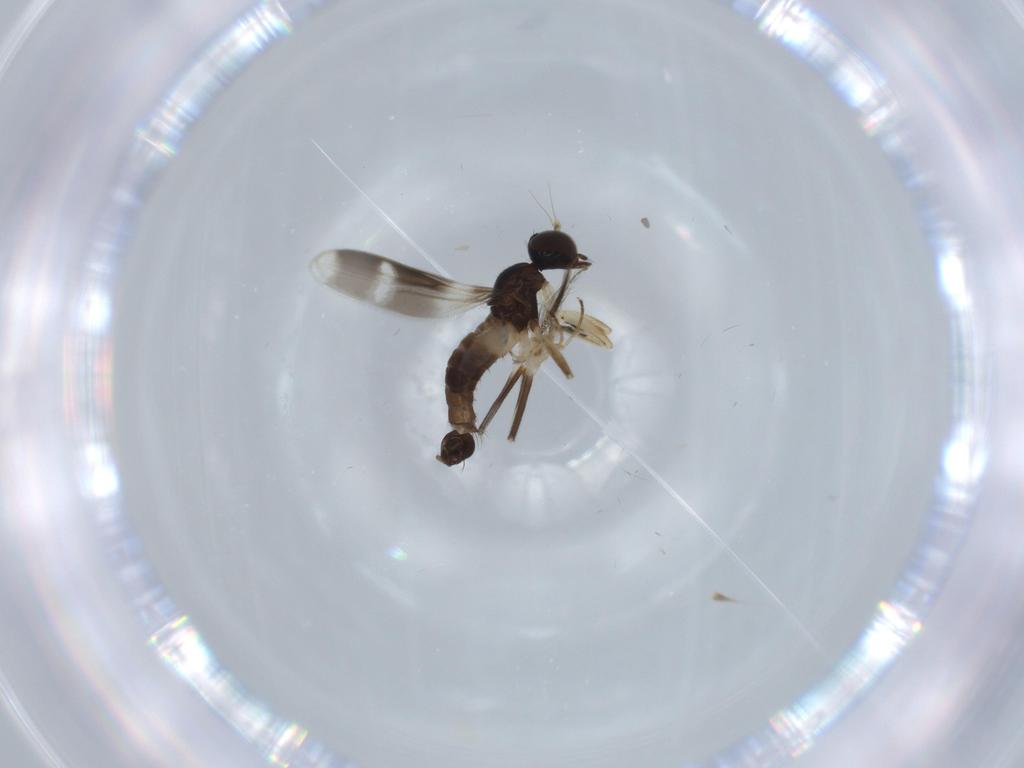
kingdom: Animalia
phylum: Arthropoda
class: Insecta
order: Diptera
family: Hybotidae
